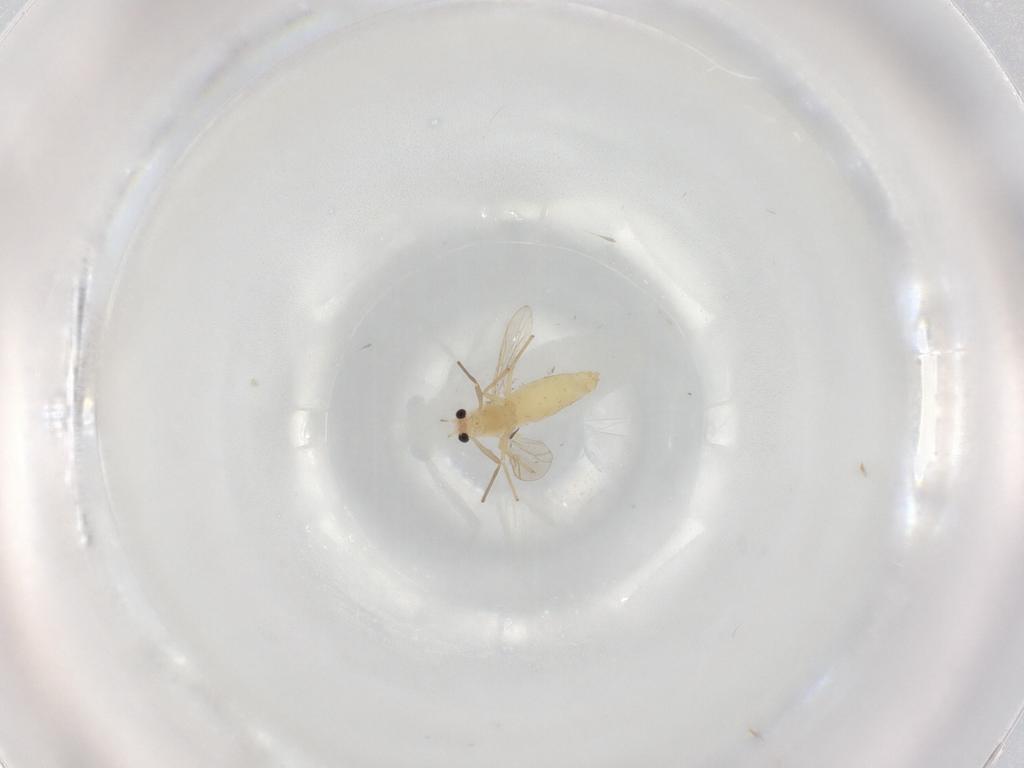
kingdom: Animalia
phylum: Arthropoda
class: Insecta
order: Diptera
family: Chironomidae
